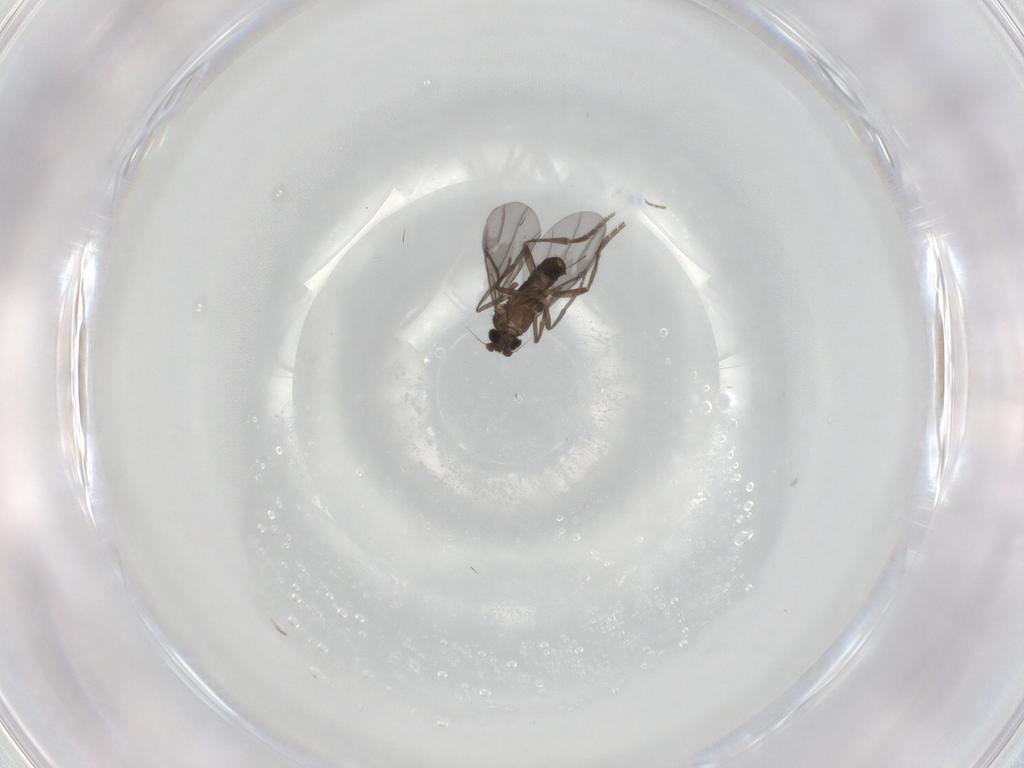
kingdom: Animalia
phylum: Arthropoda
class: Insecta
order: Diptera
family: Phoridae
